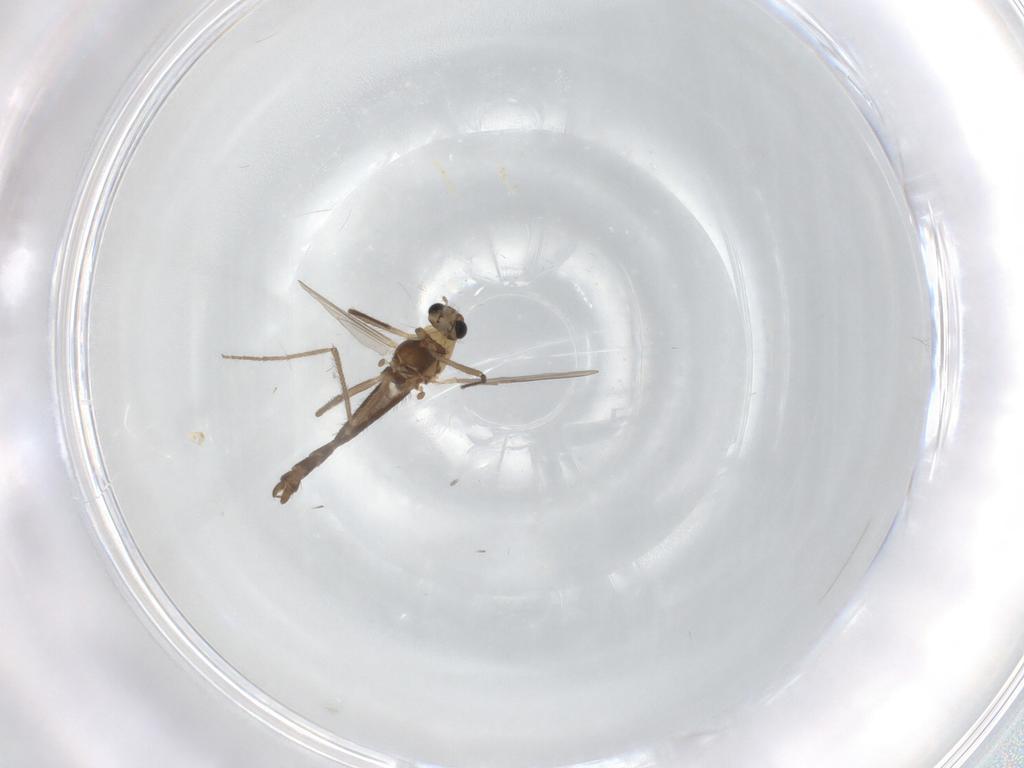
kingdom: Animalia
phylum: Arthropoda
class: Insecta
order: Diptera
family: Chironomidae
